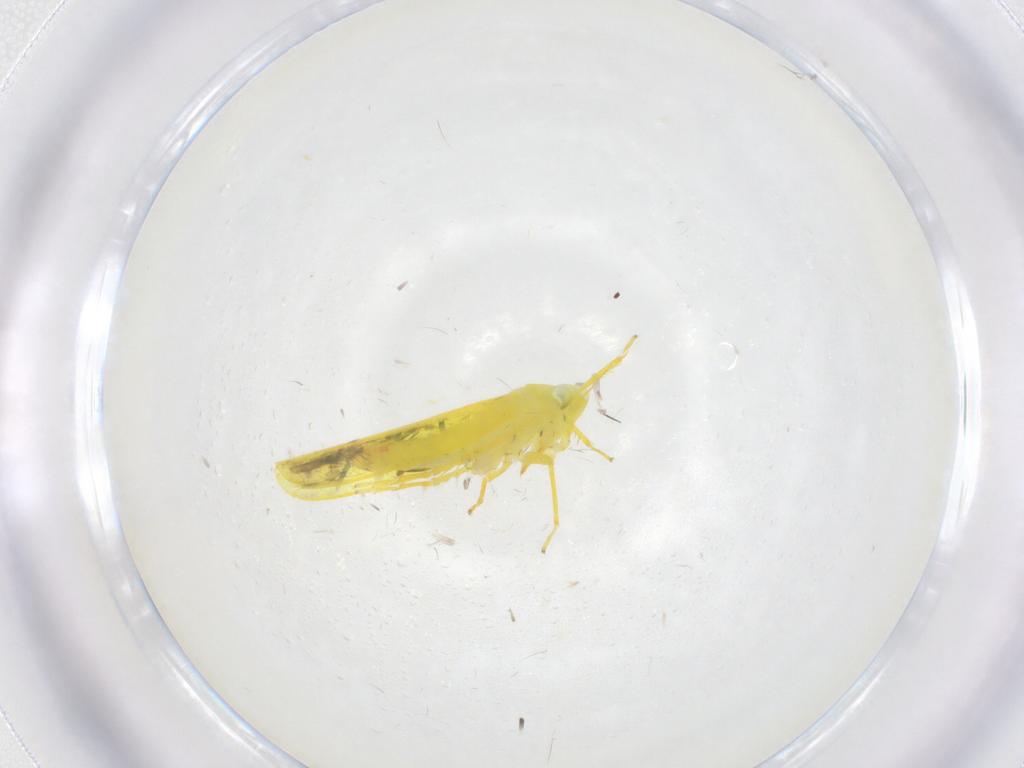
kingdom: Animalia
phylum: Arthropoda
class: Insecta
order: Hemiptera
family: Cicadellidae
